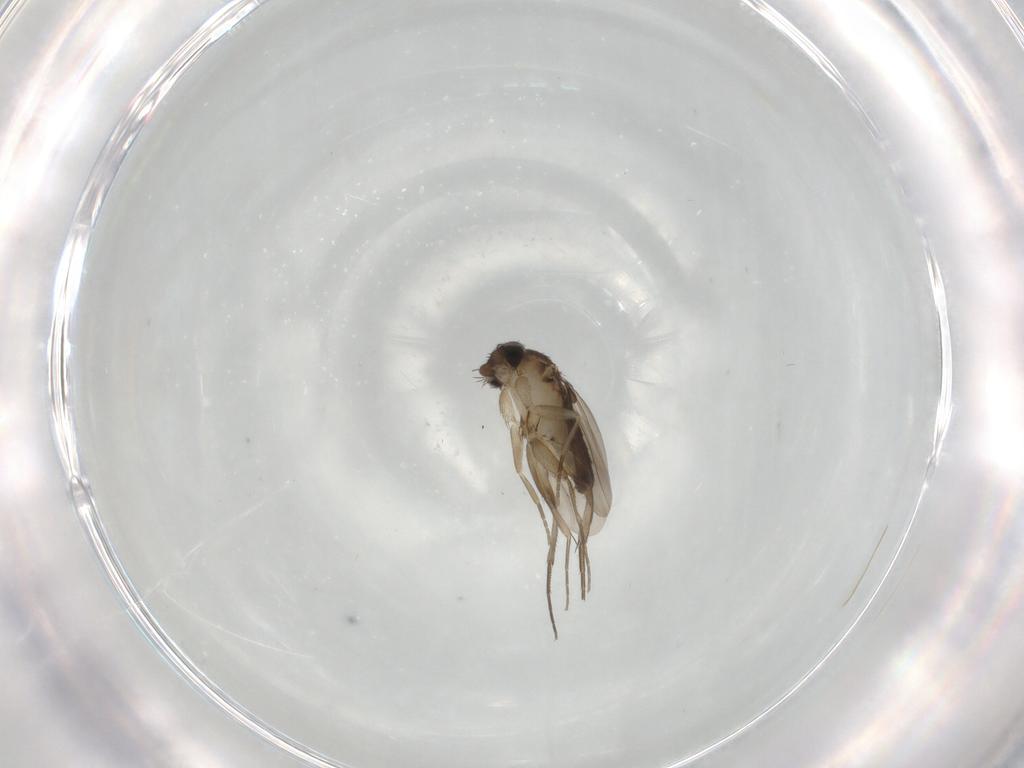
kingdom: Animalia
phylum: Arthropoda
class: Insecta
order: Diptera
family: Phoridae
